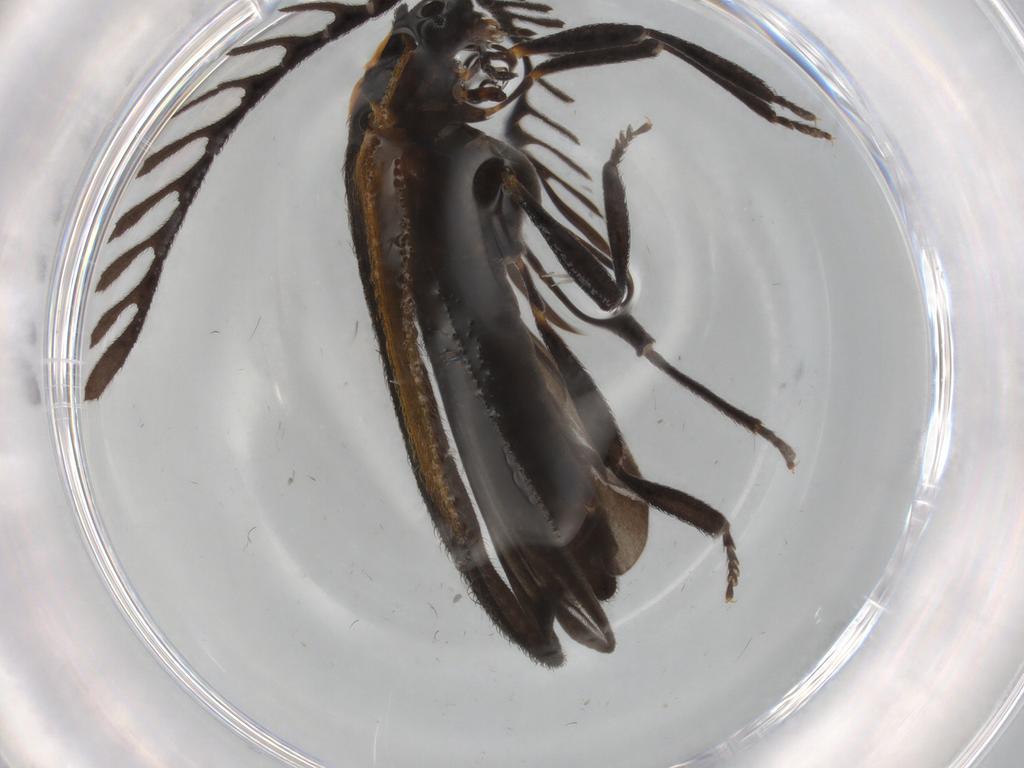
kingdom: Animalia
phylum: Arthropoda
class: Insecta
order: Coleoptera
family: Lycidae
